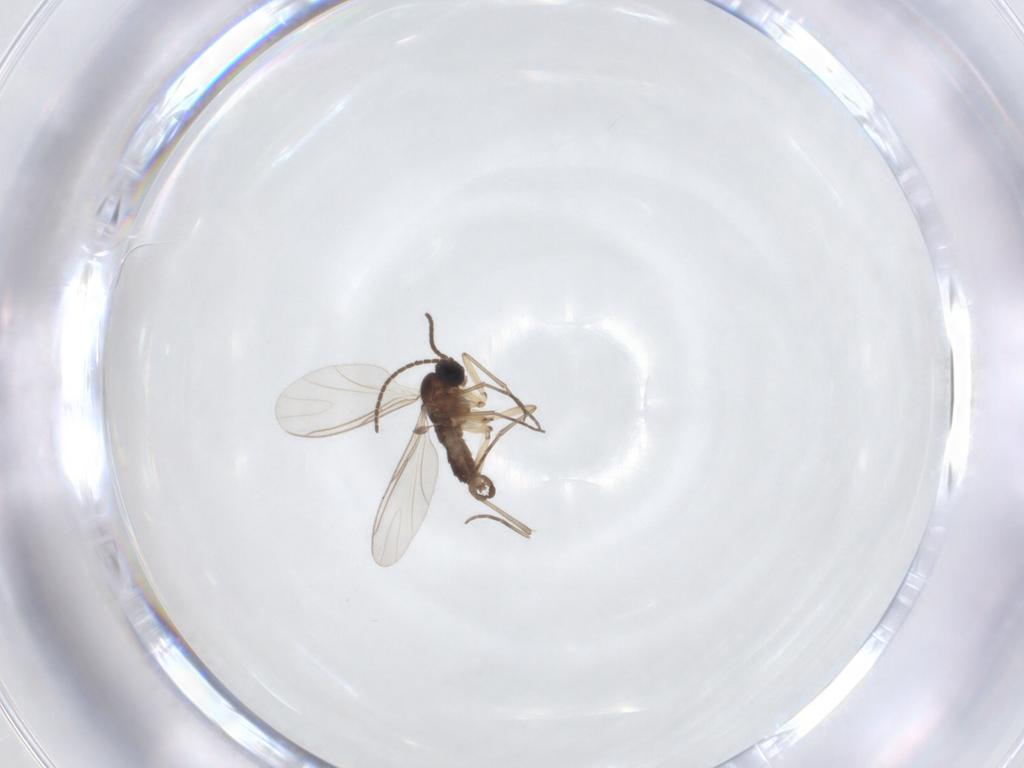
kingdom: Animalia
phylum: Arthropoda
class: Insecta
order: Diptera
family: Sciaridae
